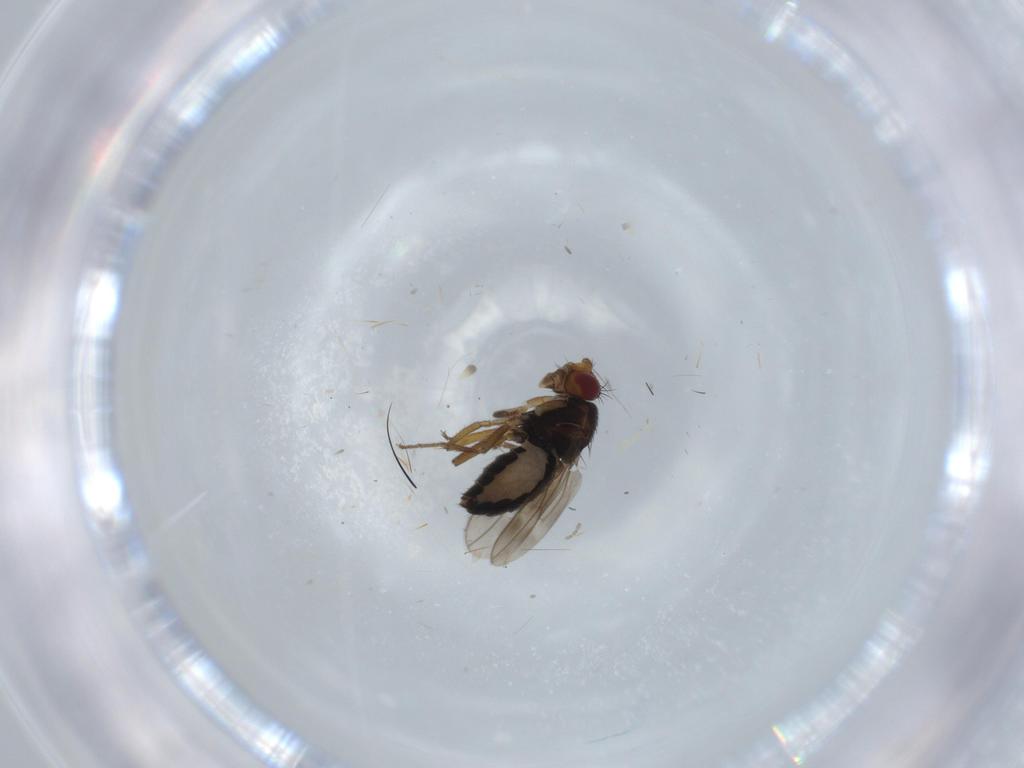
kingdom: Animalia
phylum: Arthropoda
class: Insecta
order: Diptera
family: Sphaeroceridae
